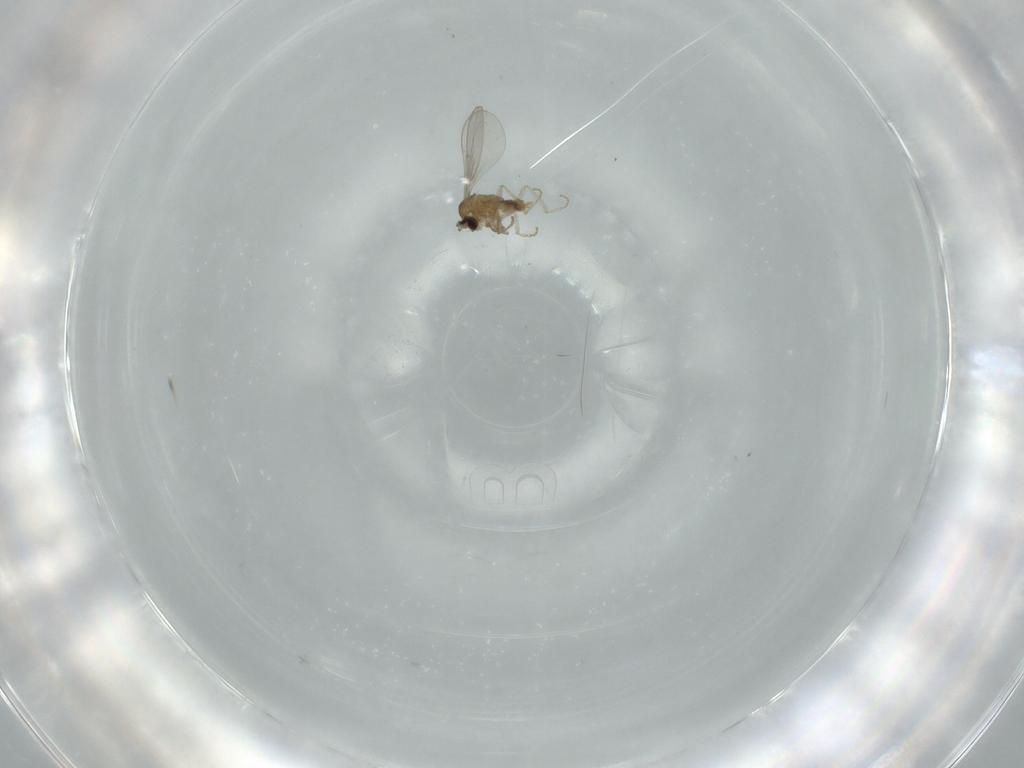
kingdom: Animalia
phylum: Arthropoda
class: Insecta
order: Diptera
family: Cecidomyiidae
